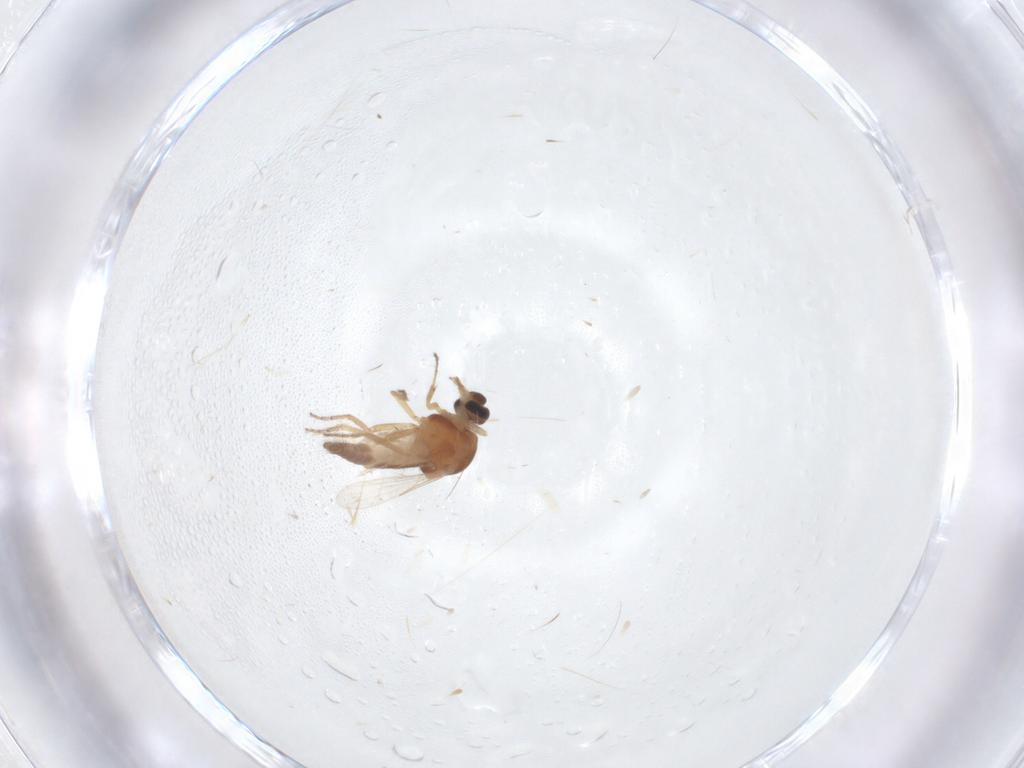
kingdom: Animalia
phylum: Arthropoda
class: Insecta
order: Diptera
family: Ceratopogonidae
